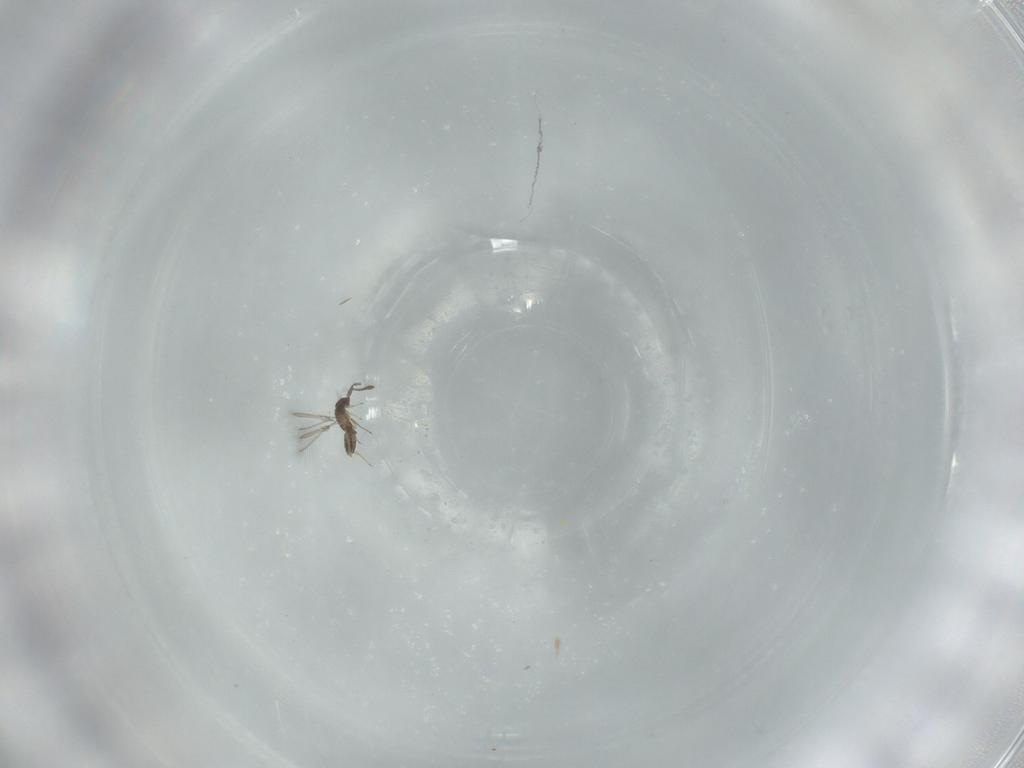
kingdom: Animalia
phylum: Arthropoda
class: Insecta
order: Hymenoptera
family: Mymaridae
